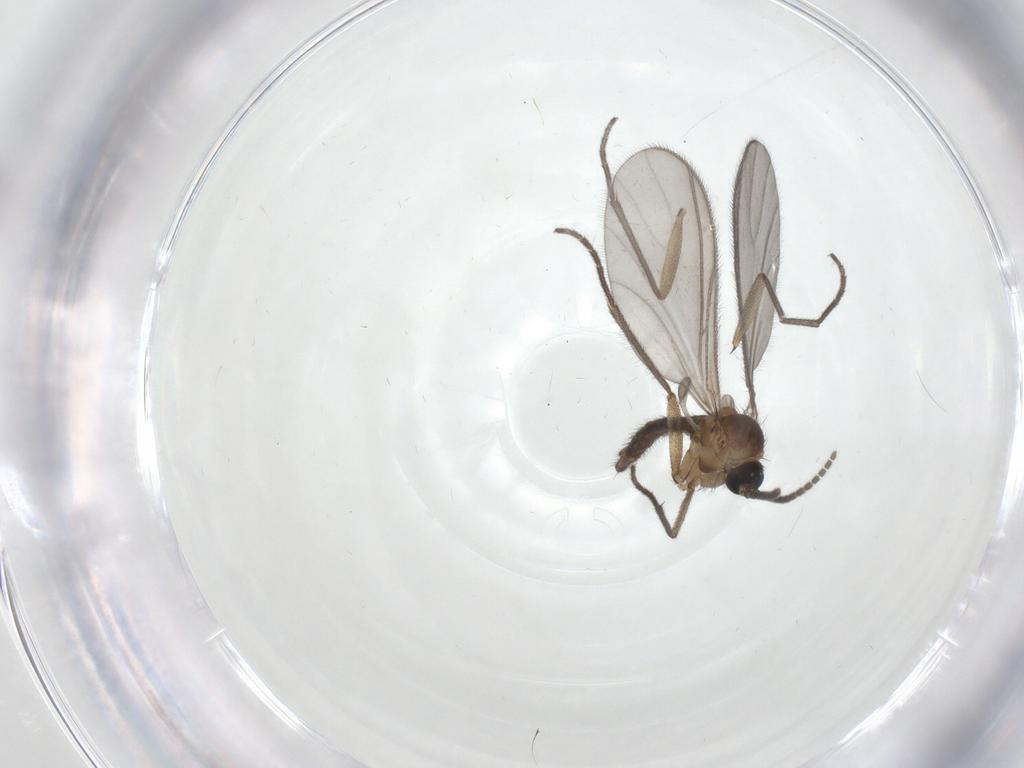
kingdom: Animalia
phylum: Arthropoda
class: Insecta
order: Diptera
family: Sciaridae
